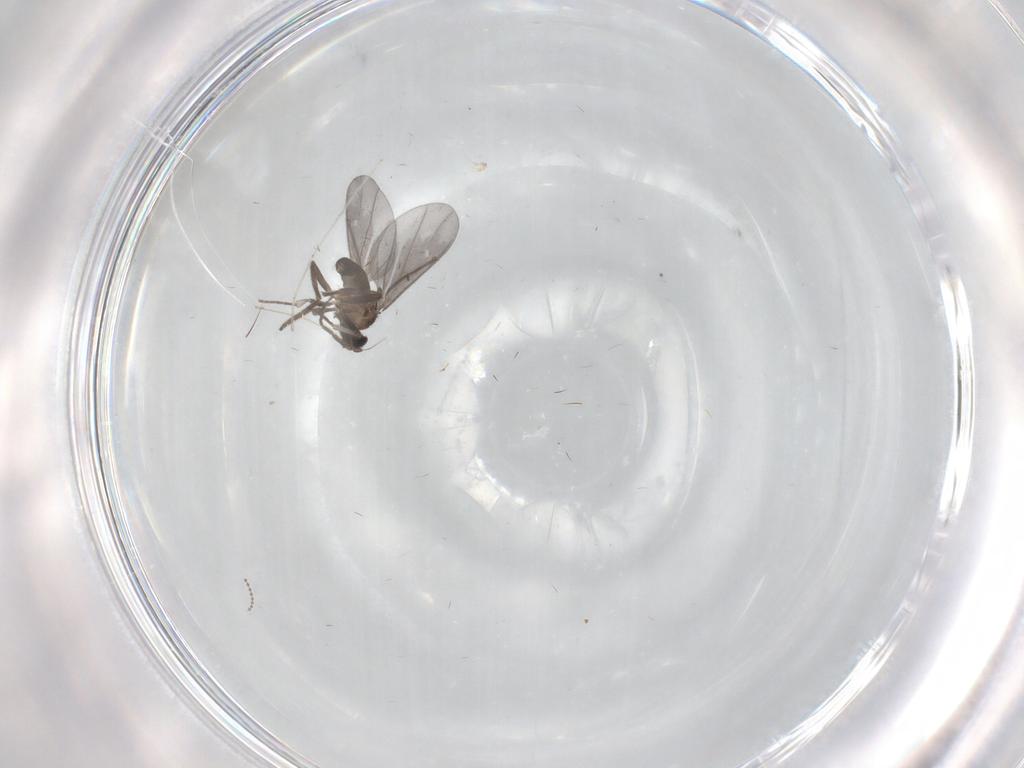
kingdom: Animalia
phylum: Arthropoda
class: Insecta
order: Diptera
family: Phoridae
